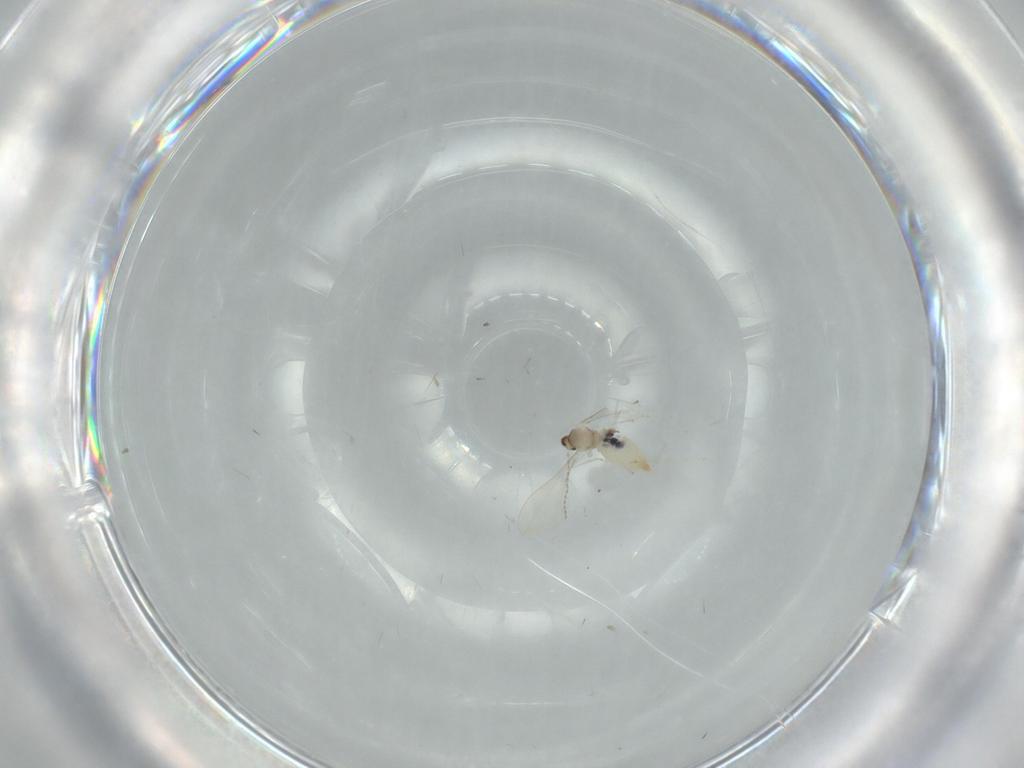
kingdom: Animalia
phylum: Arthropoda
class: Insecta
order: Diptera
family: Cecidomyiidae
